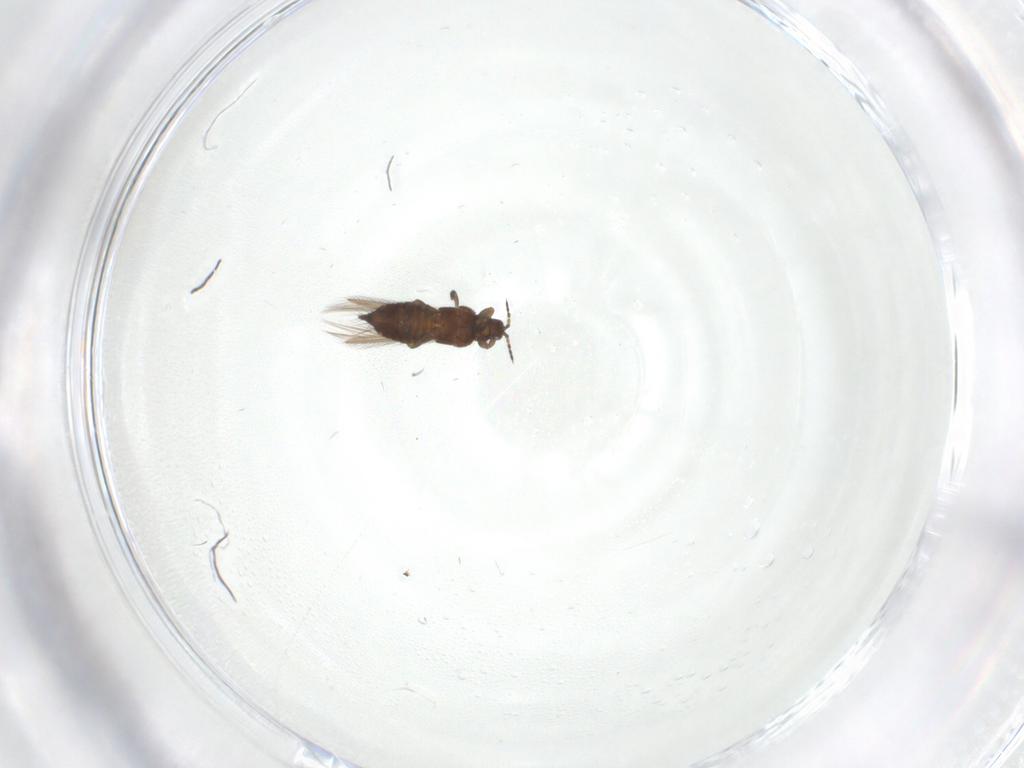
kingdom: Animalia
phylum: Arthropoda
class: Insecta
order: Thysanoptera
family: Thripidae
